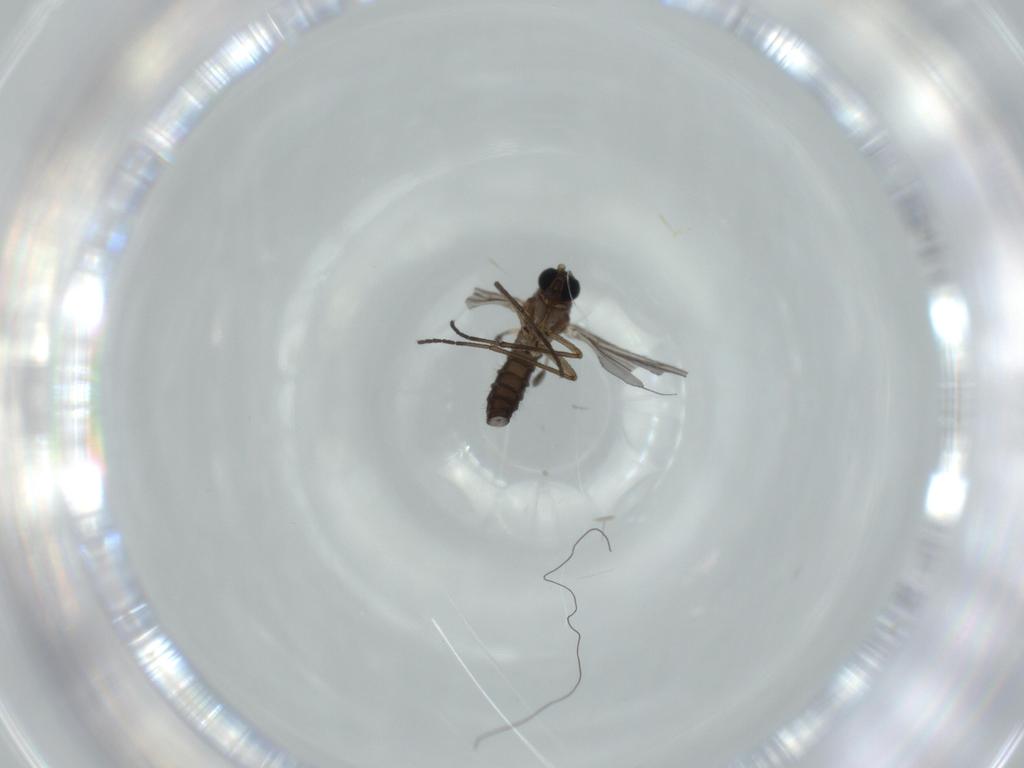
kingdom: Animalia
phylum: Arthropoda
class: Insecta
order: Diptera
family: Sciaridae
